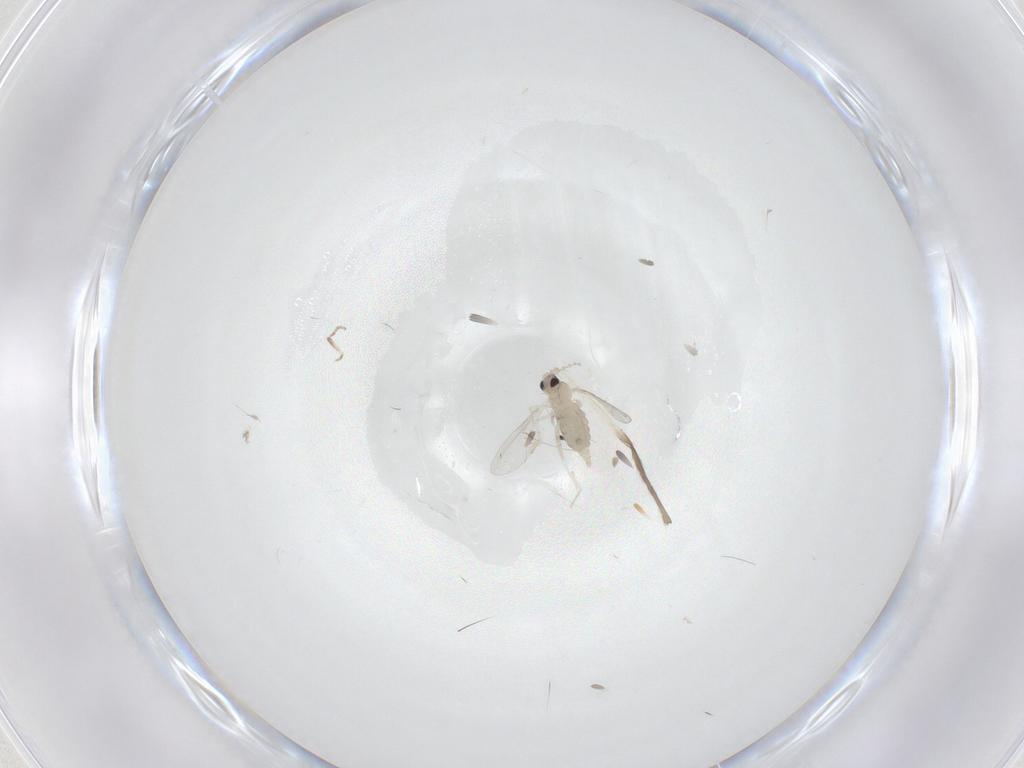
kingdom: Animalia
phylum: Arthropoda
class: Insecta
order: Diptera
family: Cecidomyiidae
